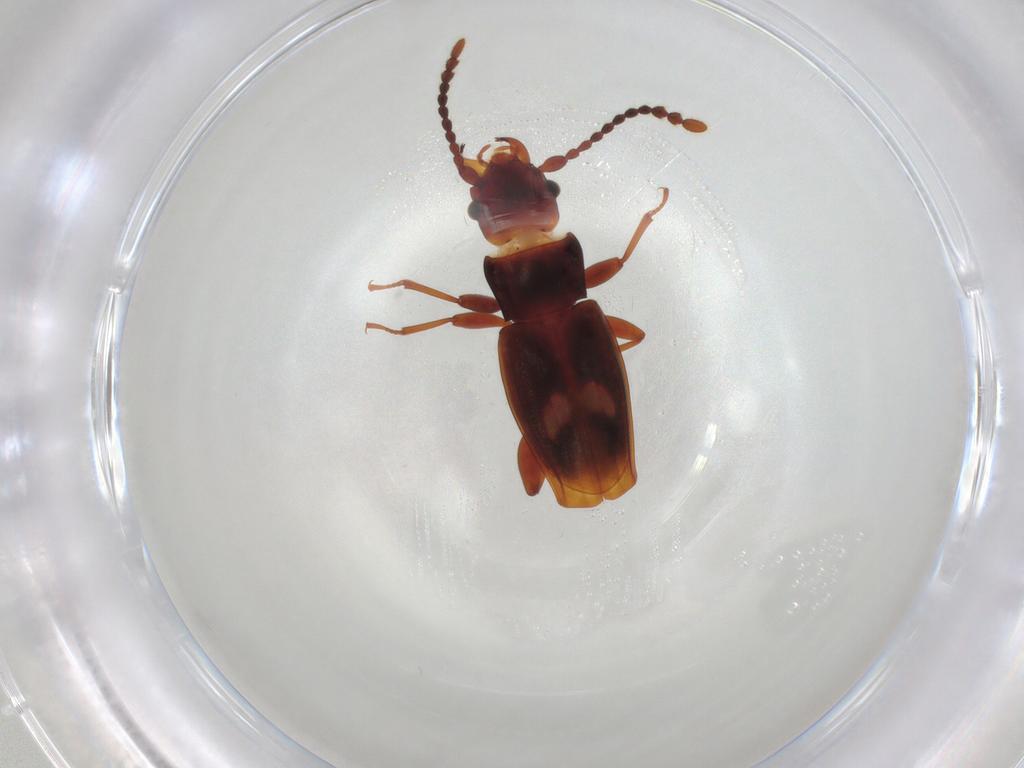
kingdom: Animalia
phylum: Arthropoda
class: Insecta
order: Coleoptera
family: Laemophloeidae
